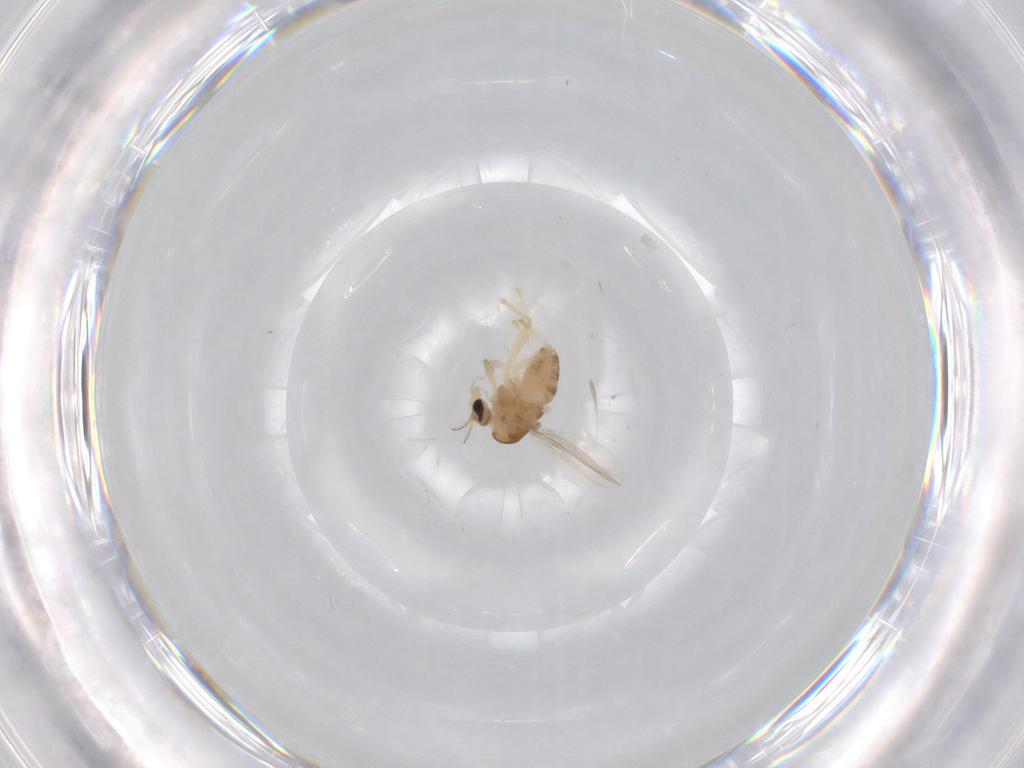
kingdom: Animalia
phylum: Arthropoda
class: Insecta
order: Diptera
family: Chironomidae
